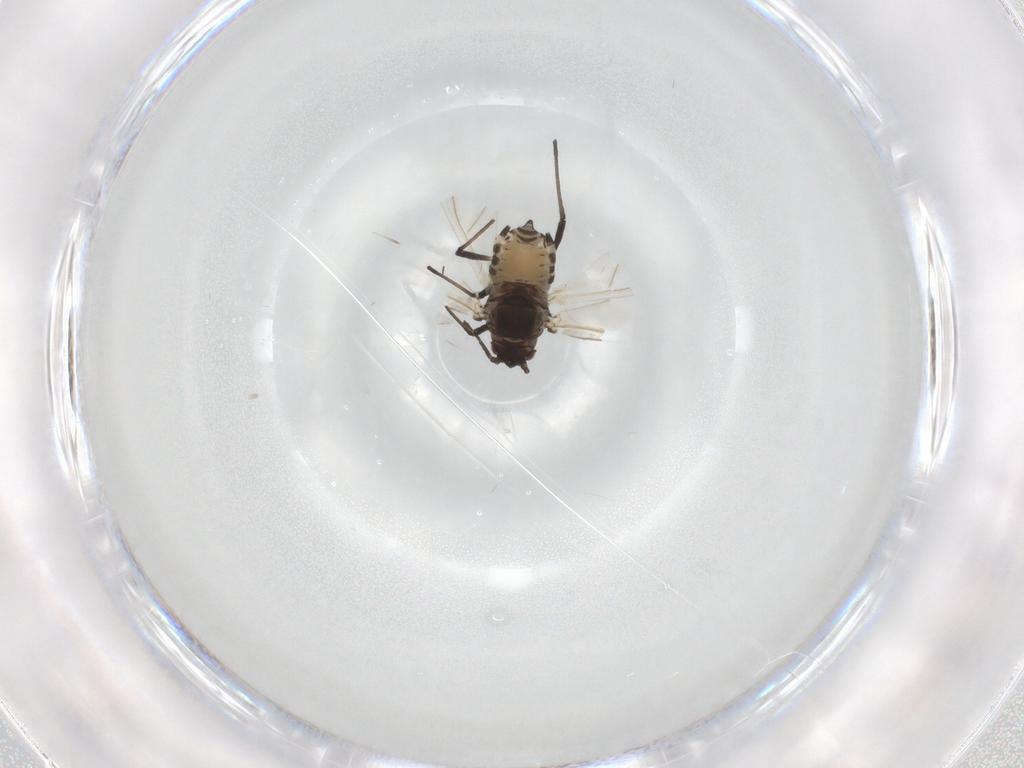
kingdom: Animalia
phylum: Arthropoda
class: Insecta
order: Hemiptera
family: Aphididae
